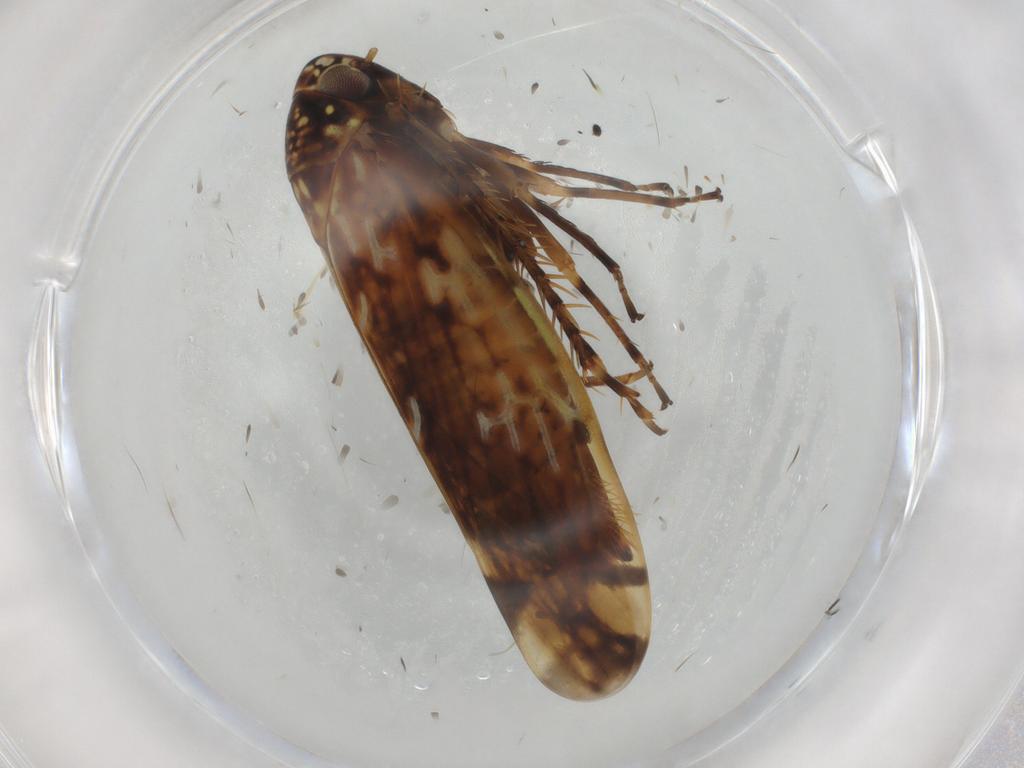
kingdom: Animalia
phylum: Arthropoda
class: Insecta
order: Hemiptera
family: Cicadellidae
